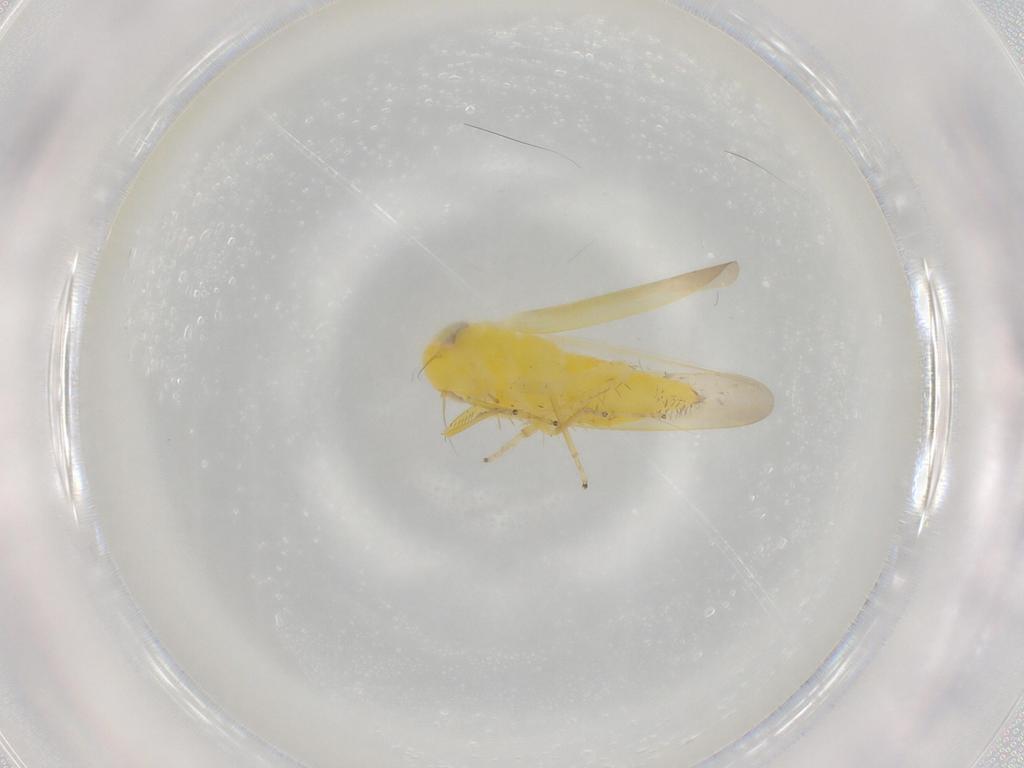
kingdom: Animalia
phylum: Arthropoda
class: Insecta
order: Hemiptera
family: Cicadellidae
